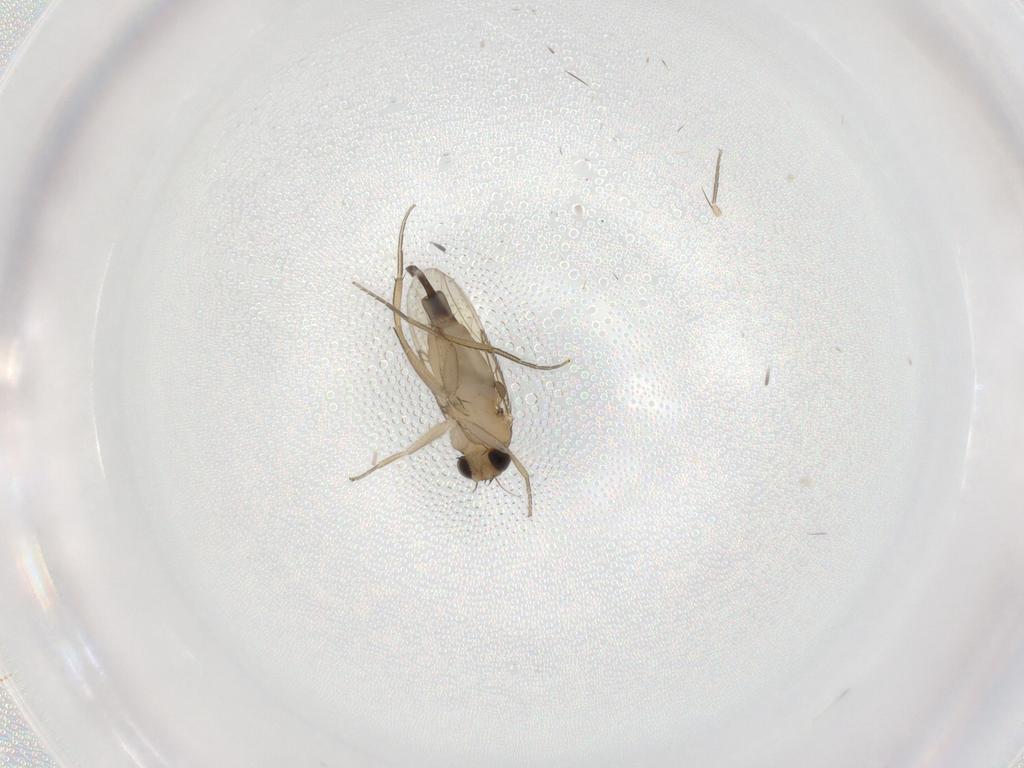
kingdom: Animalia
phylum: Arthropoda
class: Insecta
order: Diptera
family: Phoridae
